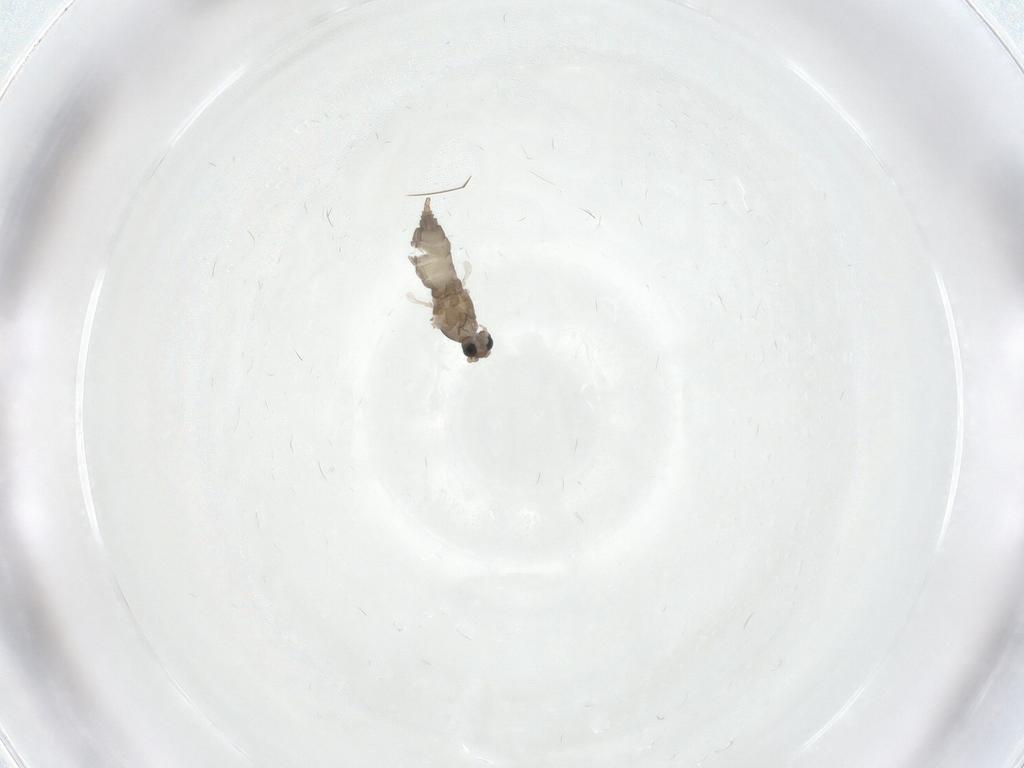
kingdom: Animalia
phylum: Arthropoda
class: Insecta
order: Diptera
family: Cecidomyiidae
